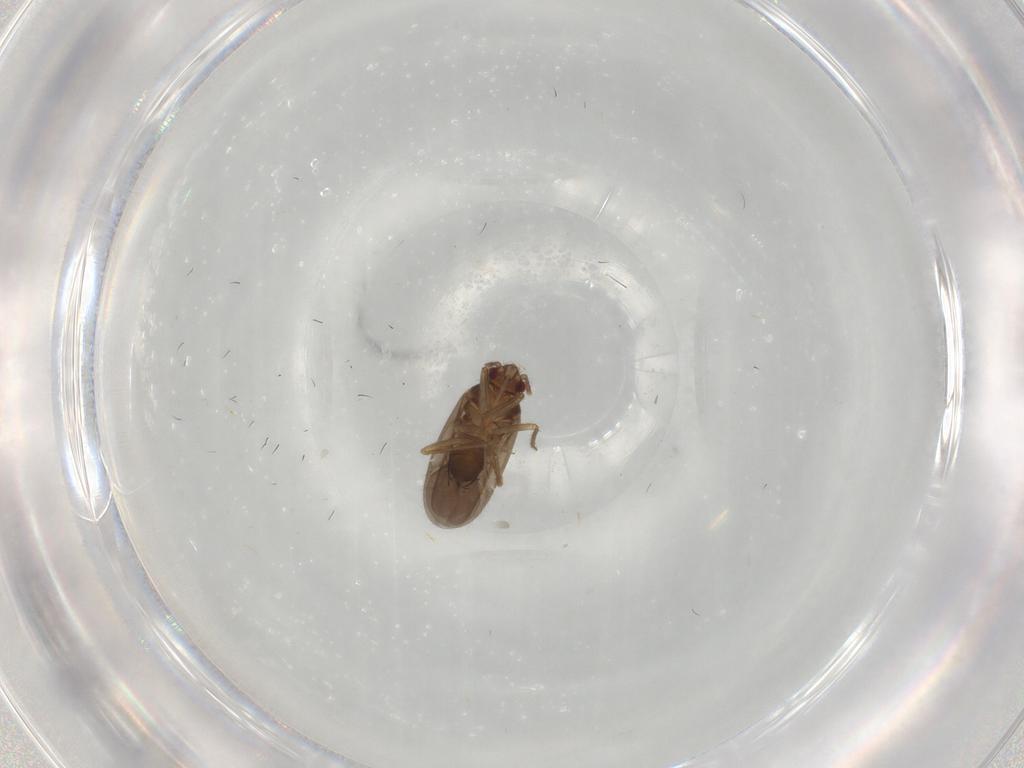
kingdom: Animalia
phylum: Arthropoda
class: Insecta
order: Hemiptera
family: Ceratocombidae
